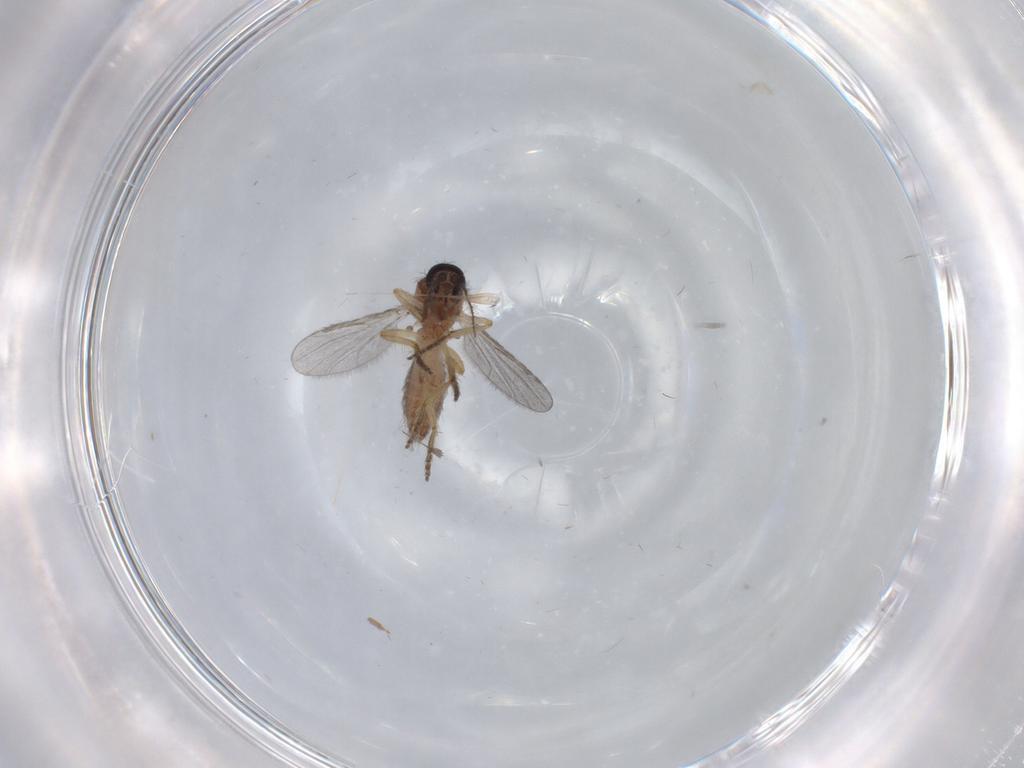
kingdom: Animalia
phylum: Arthropoda
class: Insecta
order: Diptera
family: Ceratopogonidae
